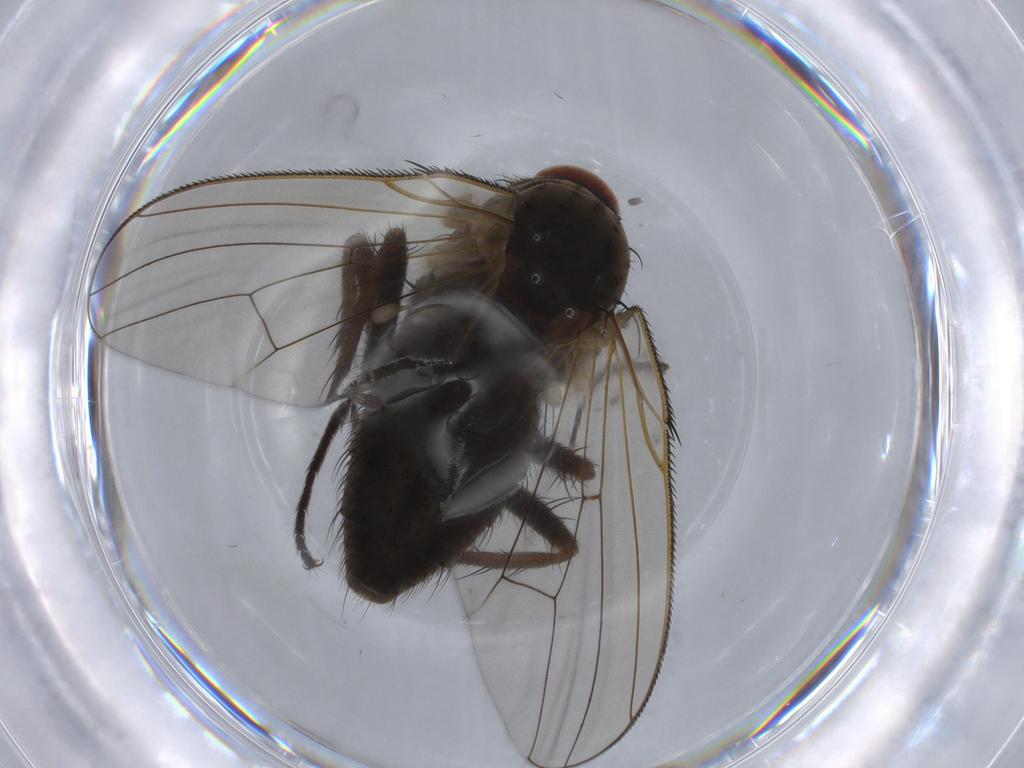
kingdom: Animalia
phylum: Arthropoda
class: Insecta
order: Diptera
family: Anthomyiidae
